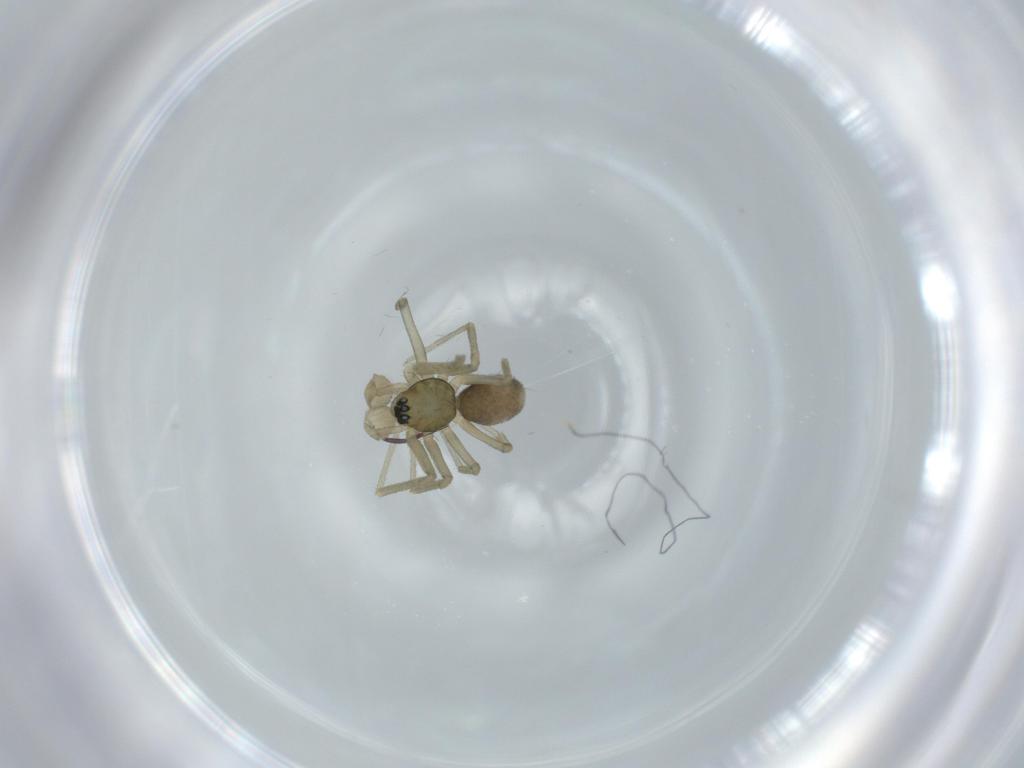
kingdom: Animalia
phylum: Arthropoda
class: Arachnida
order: Araneae
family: Linyphiidae
